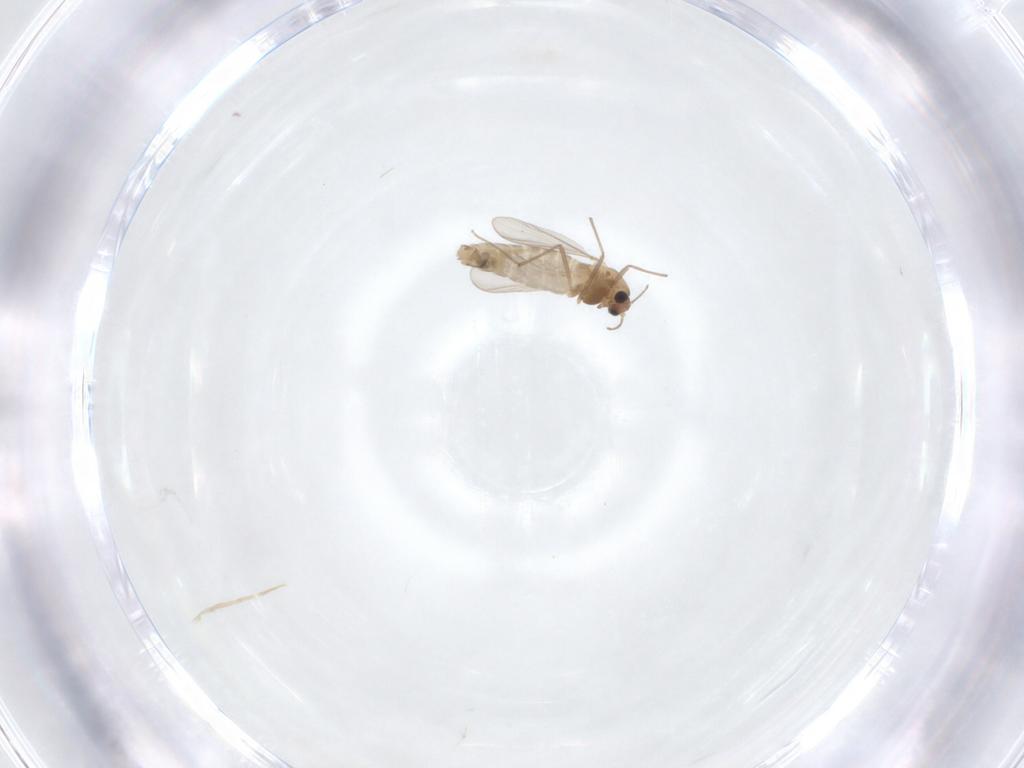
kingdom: Animalia
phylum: Arthropoda
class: Insecta
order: Diptera
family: Chironomidae
